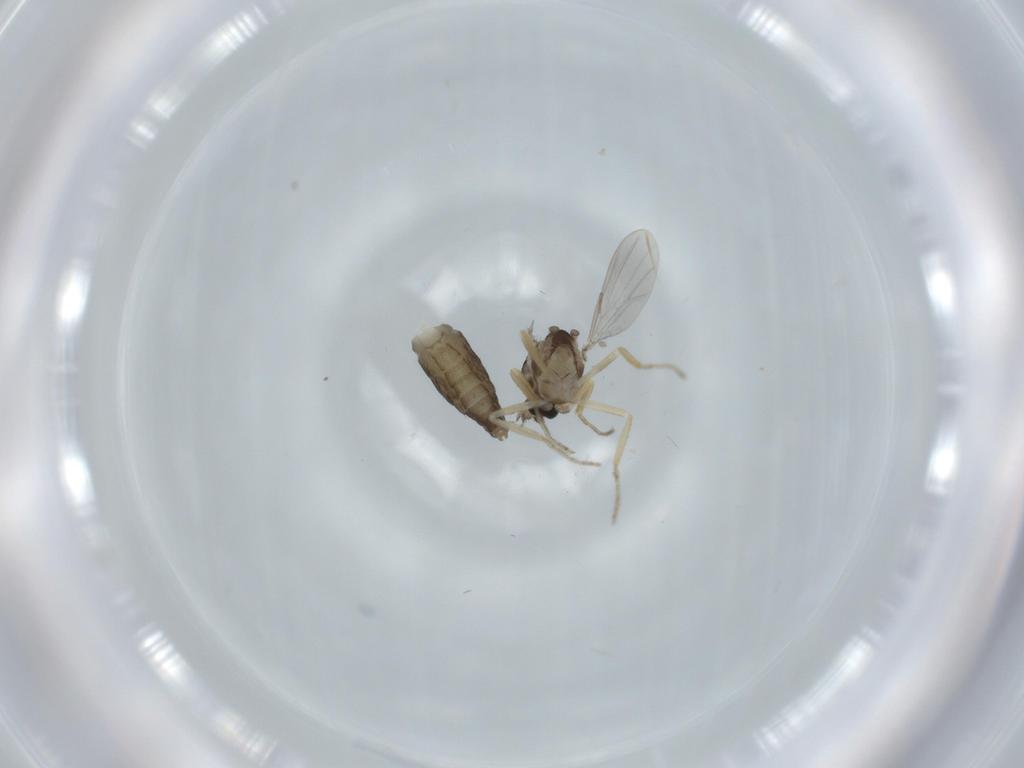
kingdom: Animalia
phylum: Arthropoda
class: Insecta
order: Diptera
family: Ceratopogonidae
